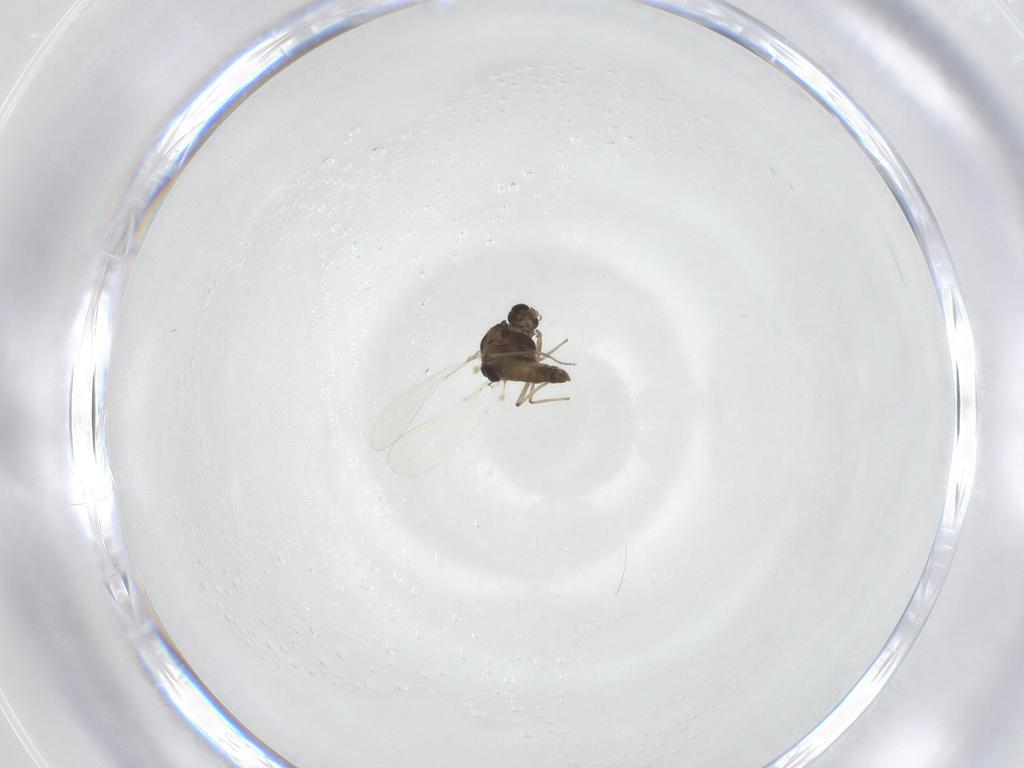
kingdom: Animalia
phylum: Arthropoda
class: Insecta
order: Diptera
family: Chironomidae
